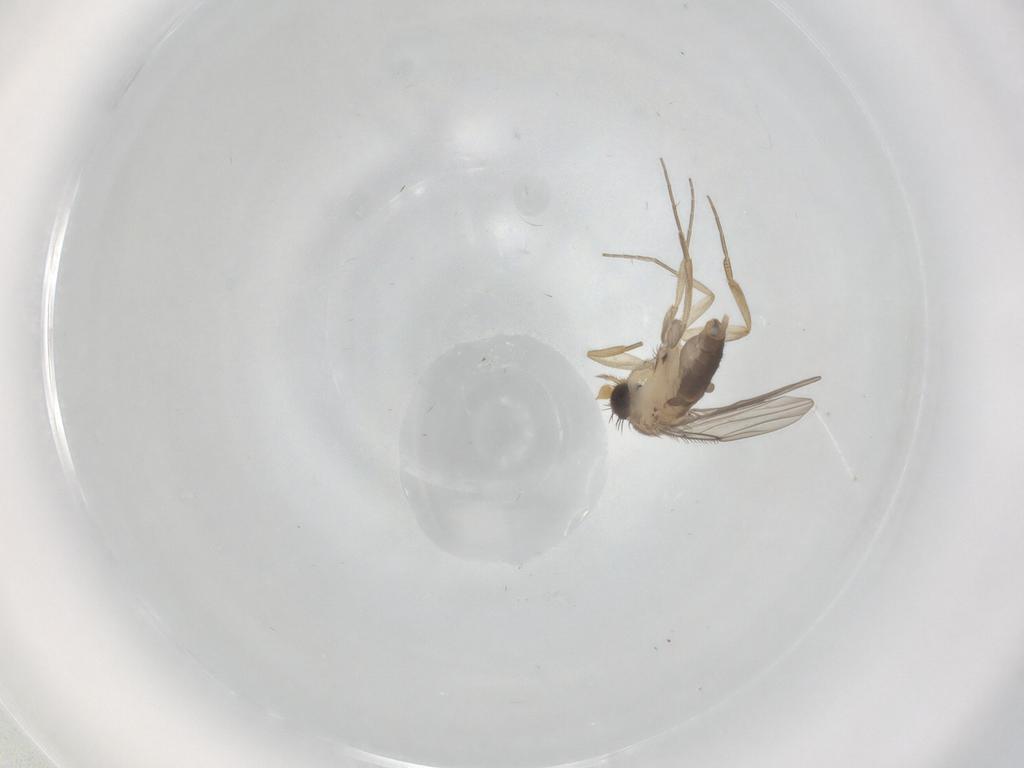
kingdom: Animalia
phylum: Arthropoda
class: Insecta
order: Diptera
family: Phoridae
